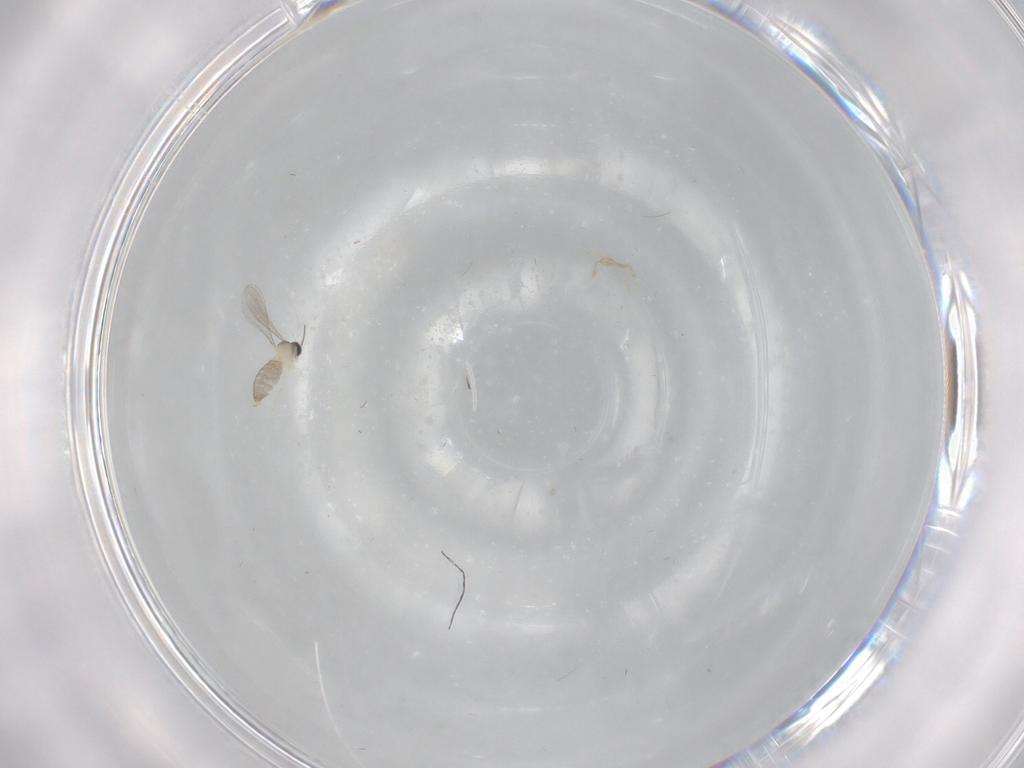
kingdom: Animalia
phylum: Arthropoda
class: Insecta
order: Diptera
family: Cecidomyiidae
